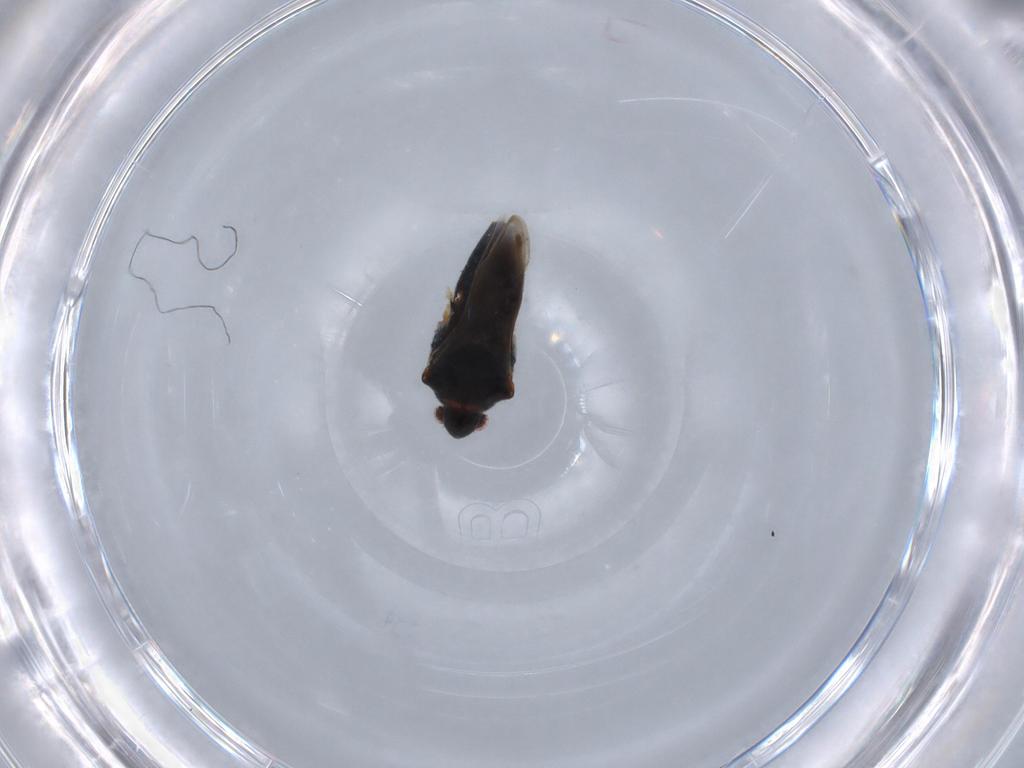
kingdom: Animalia
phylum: Arthropoda
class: Insecta
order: Hemiptera
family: Veliidae
